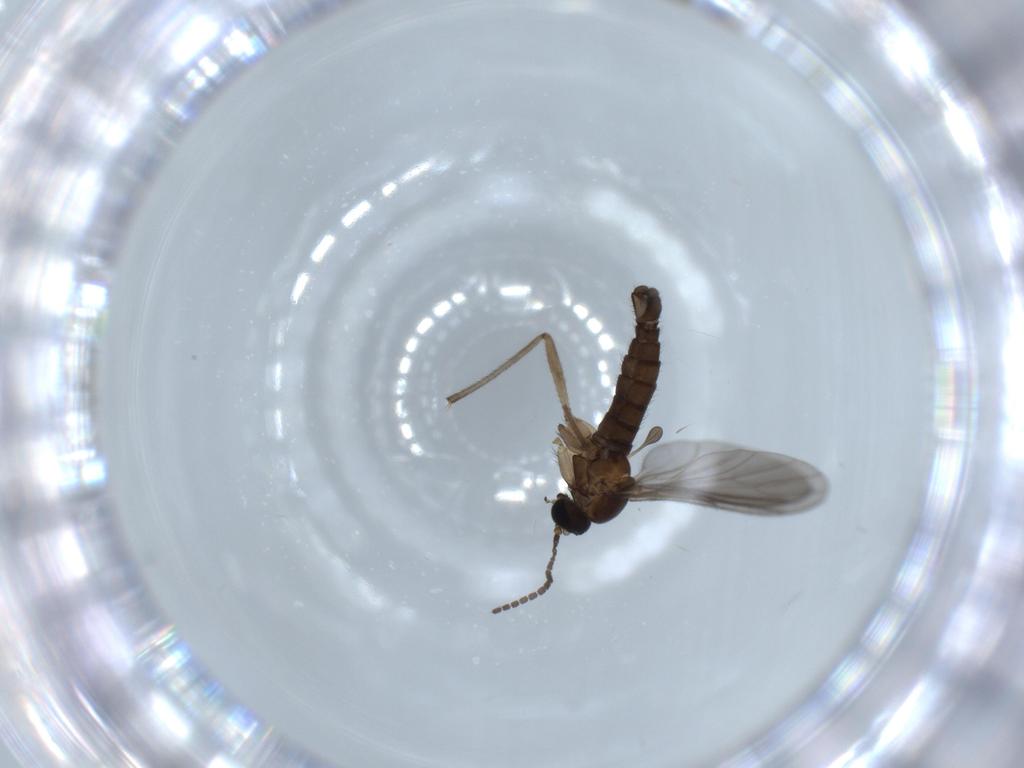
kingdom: Animalia
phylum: Arthropoda
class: Insecta
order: Diptera
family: Sciaridae
